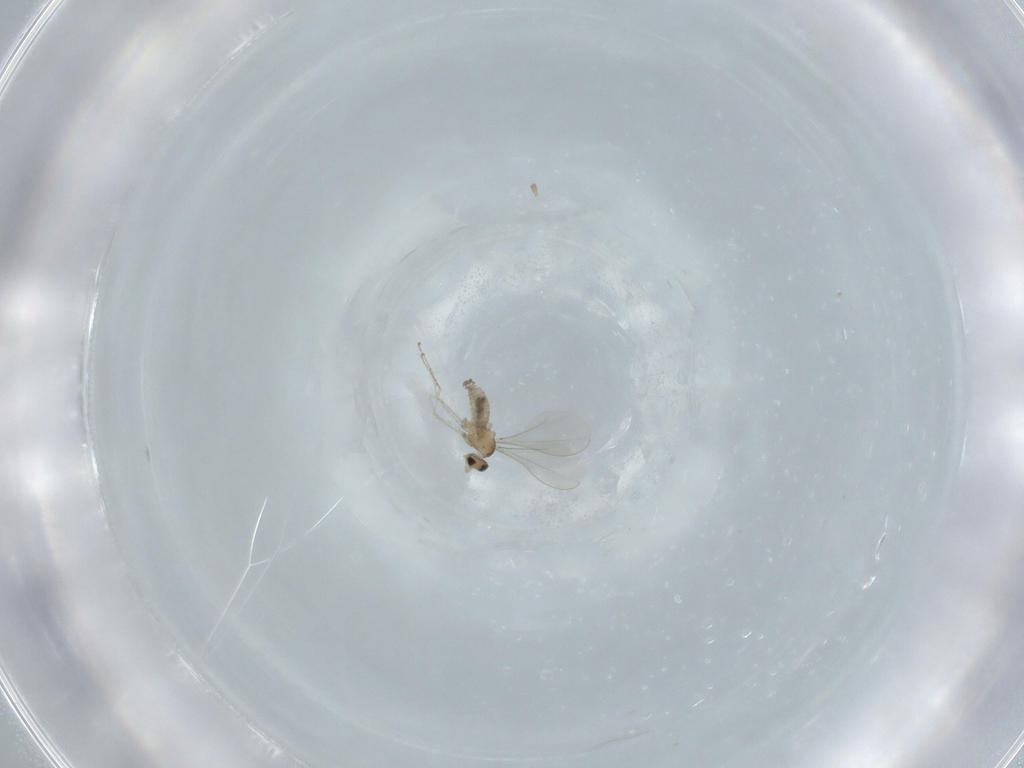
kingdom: Animalia
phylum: Arthropoda
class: Insecta
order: Diptera
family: Cecidomyiidae
